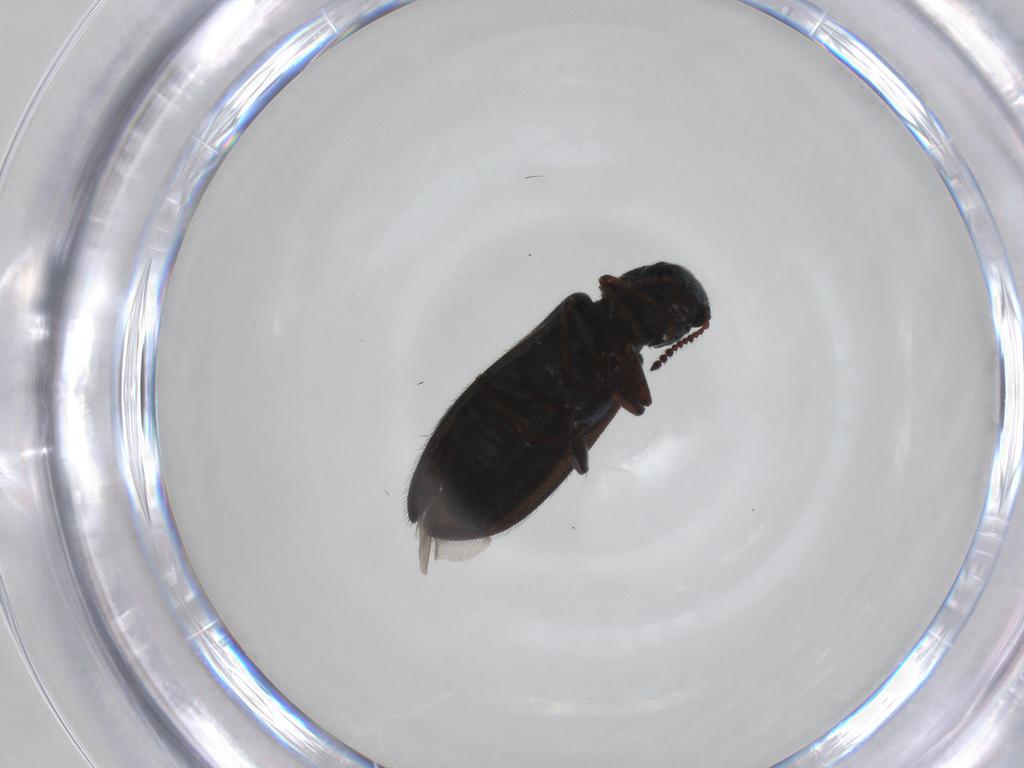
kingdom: Animalia
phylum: Arthropoda
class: Insecta
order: Coleoptera
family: Melyridae
